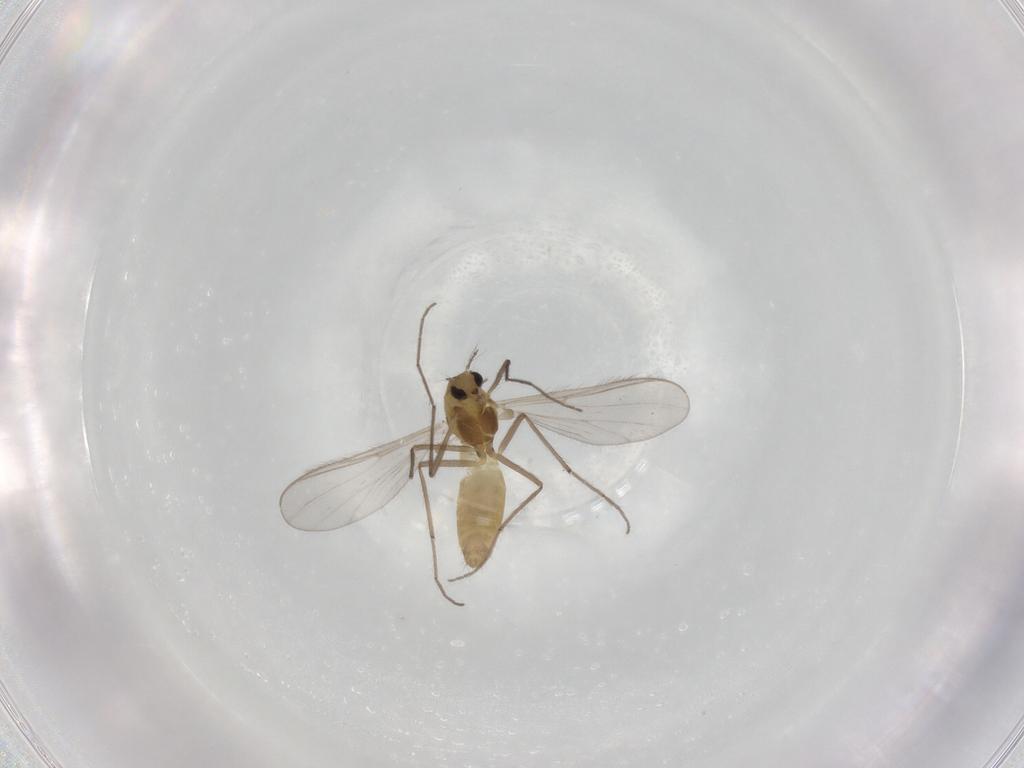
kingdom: Animalia
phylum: Arthropoda
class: Insecta
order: Diptera
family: Chironomidae
